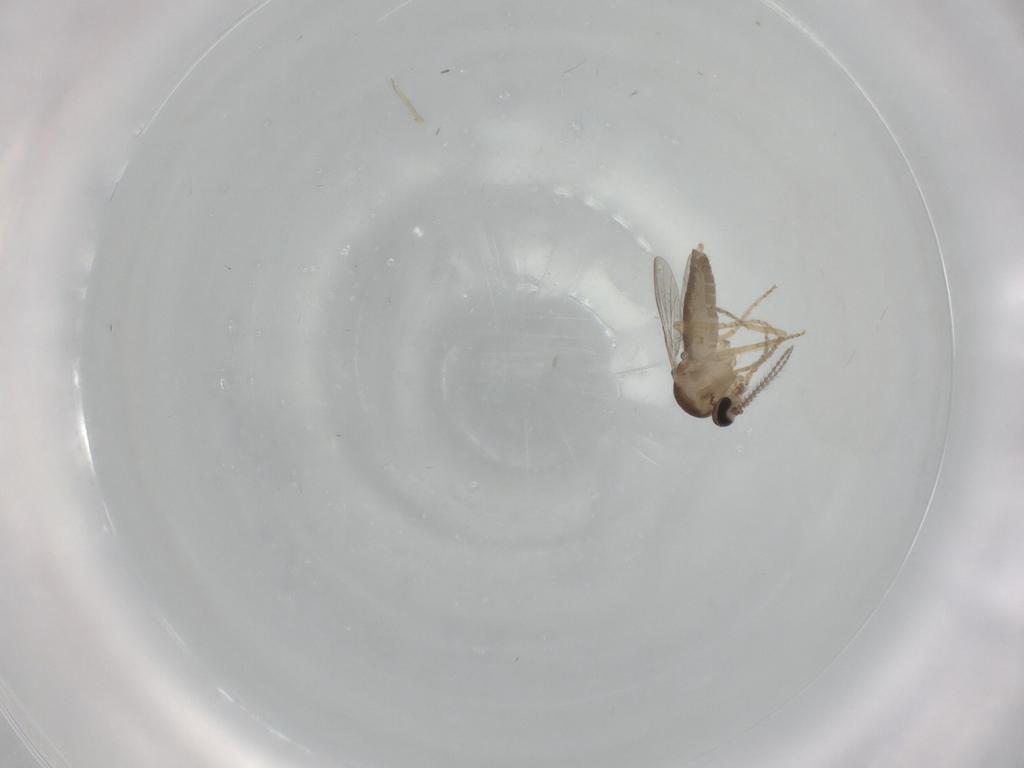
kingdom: Animalia
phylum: Arthropoda
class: Insecta
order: Diptera
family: Ceratopogonidae
